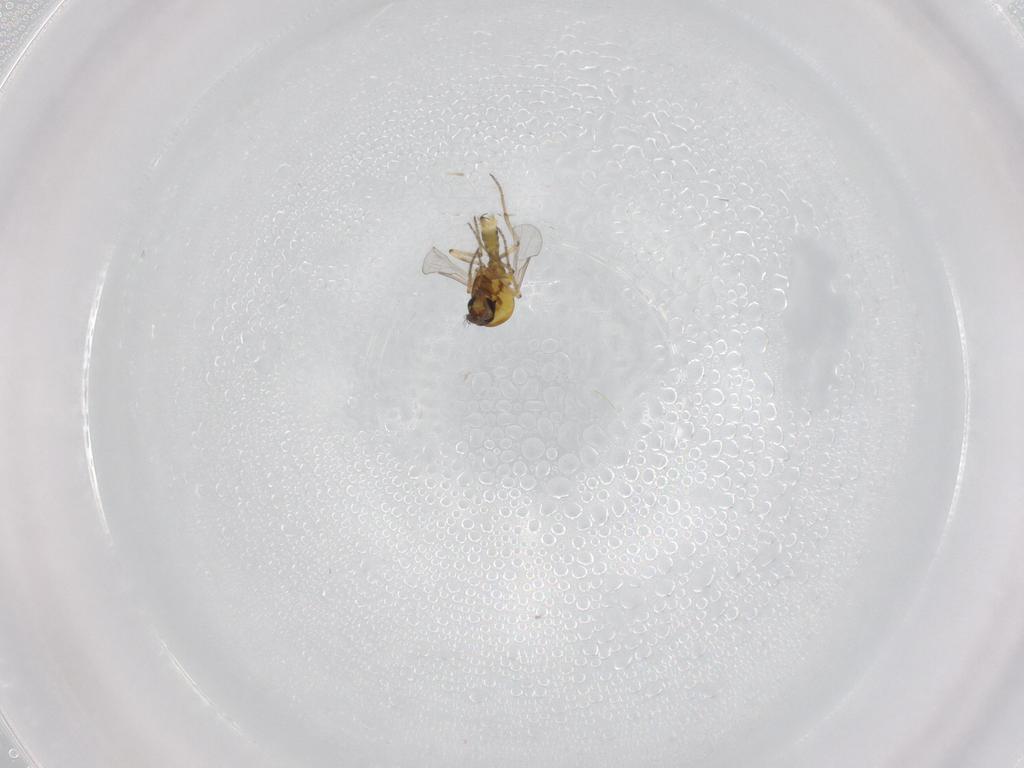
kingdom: Animalia
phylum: Arthropoda
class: Insecta
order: Diptera
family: Ceratopogonidae
